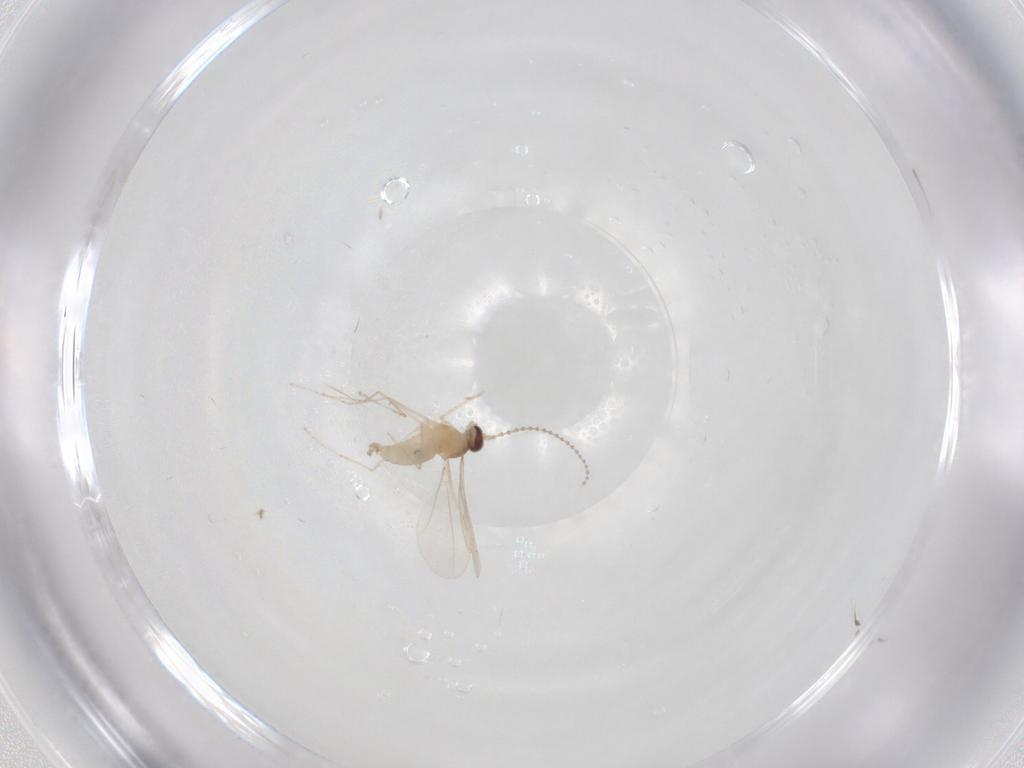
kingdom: Animalia
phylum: Arthropoda
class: Insecta
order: Diptera
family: Cecidomyiidae
